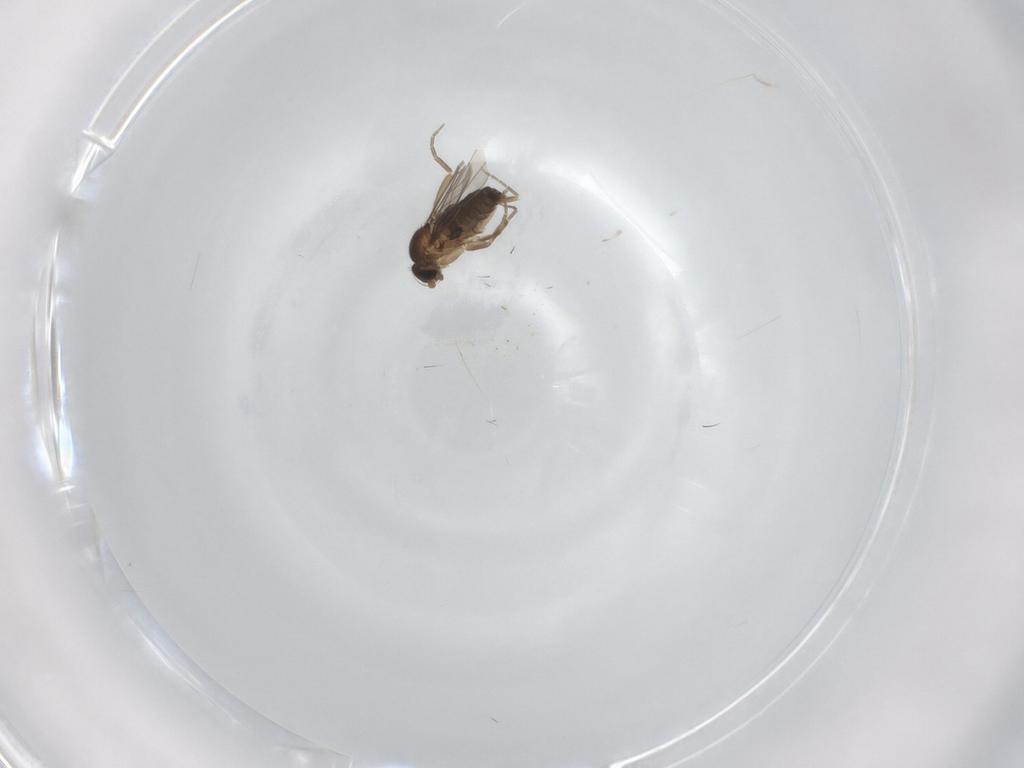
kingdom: Animalia
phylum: Arthropoda
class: Insecta
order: Diptera
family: Phoridae
